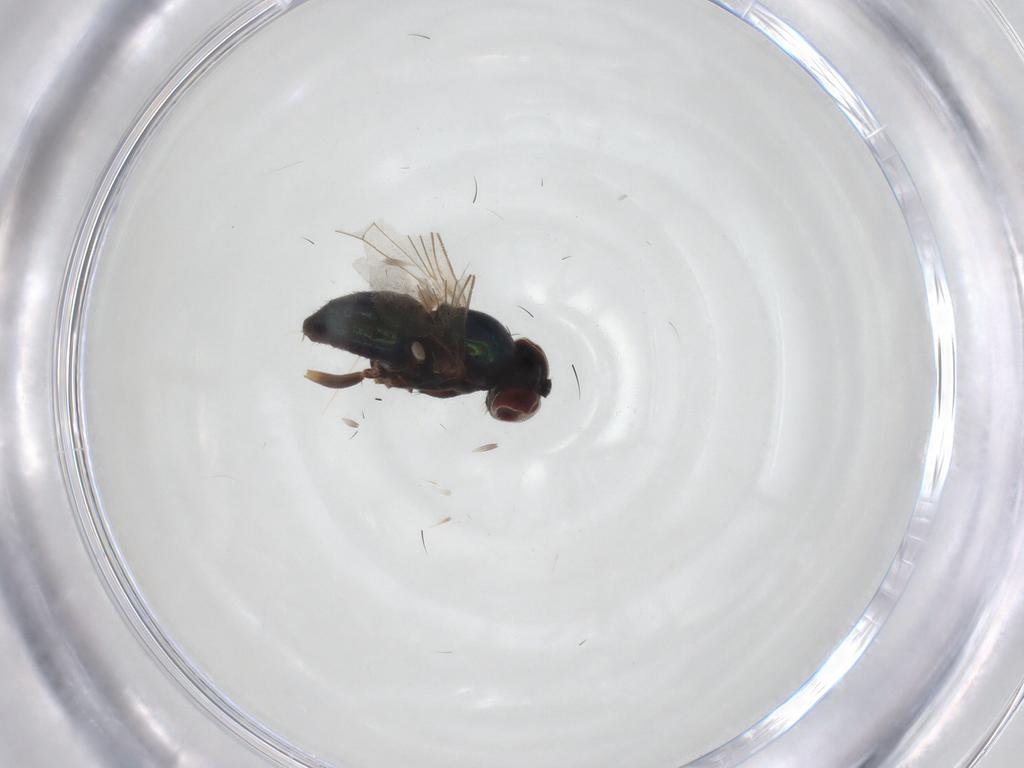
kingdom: Animalia
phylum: Arthropoda
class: Insecta
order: Diptera
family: Dolichopodidae
